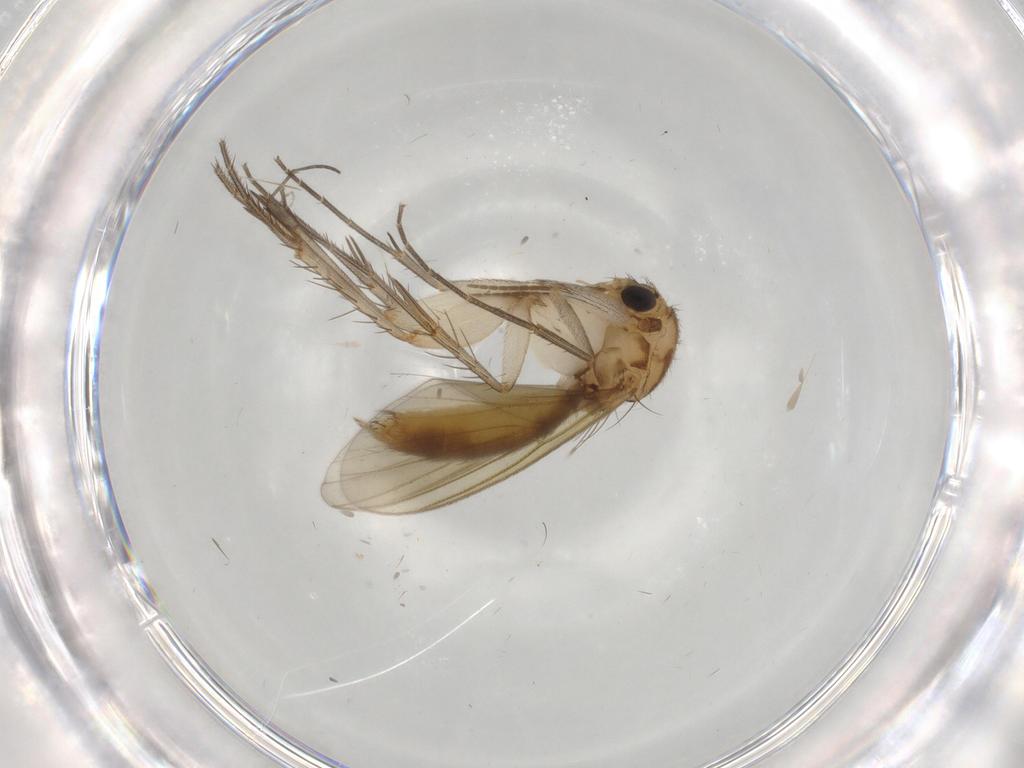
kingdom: Animalia
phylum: Arthropoda
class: Insecta
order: Diptera
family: Mycetophilidae
